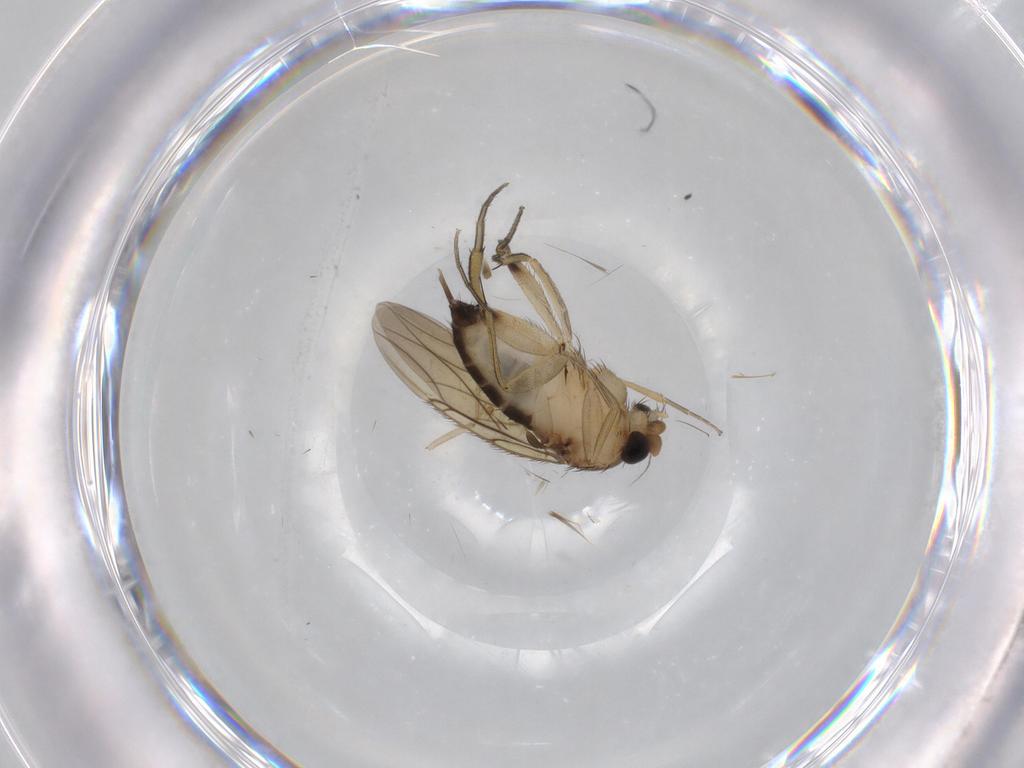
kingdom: Animalia
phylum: Arthropoda
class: Insecta
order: Diptera
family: Phoridae
